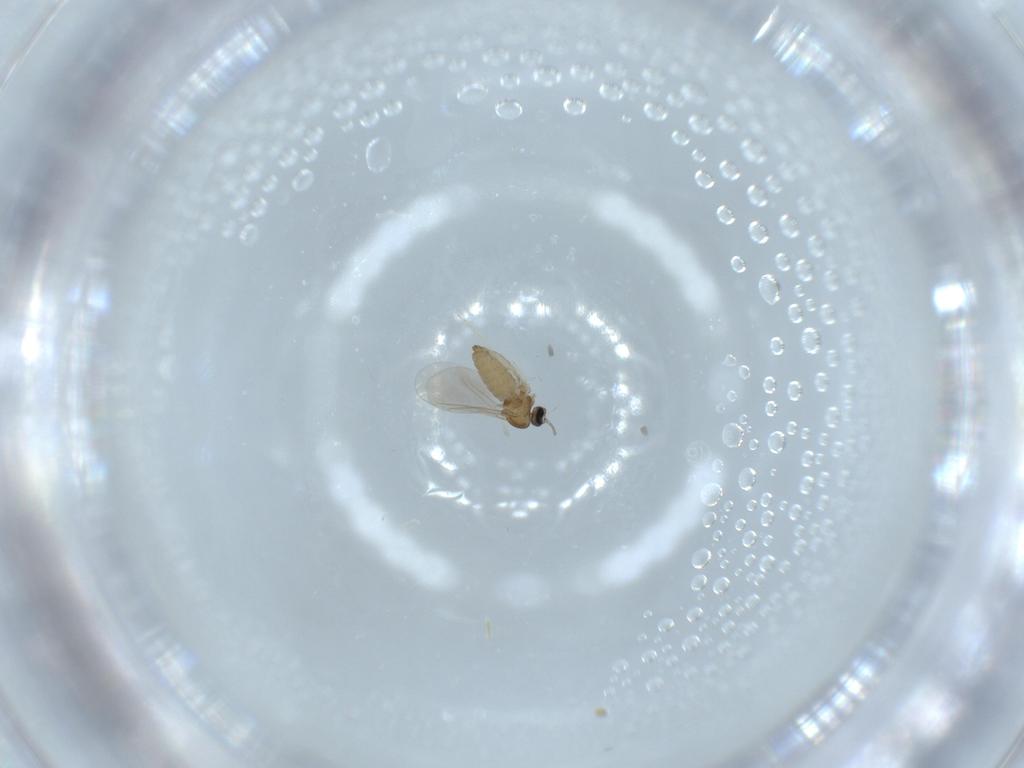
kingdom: Animalia
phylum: Arthropoda
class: Insecta
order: Diptera
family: Cecidomyiidae
